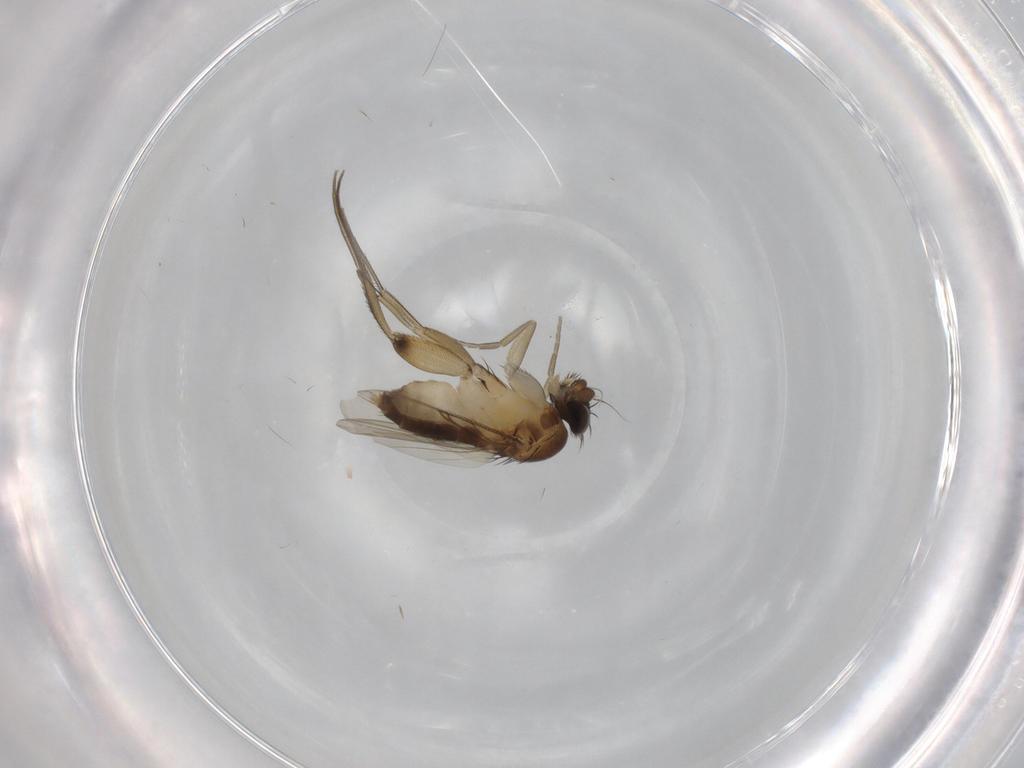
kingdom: Animalia
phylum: Arthropoda
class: Insecta
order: Diptera
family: Phoridae
